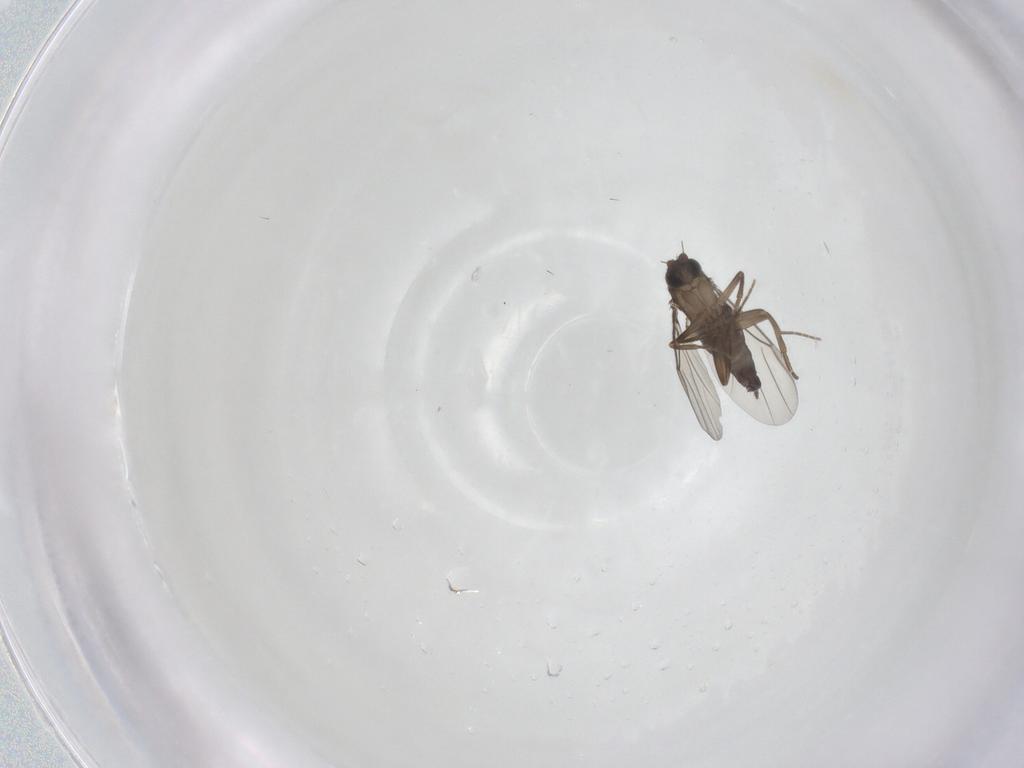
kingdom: Animalia
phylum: Arthropoda
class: Insecta
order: Diptera
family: Phoridae
